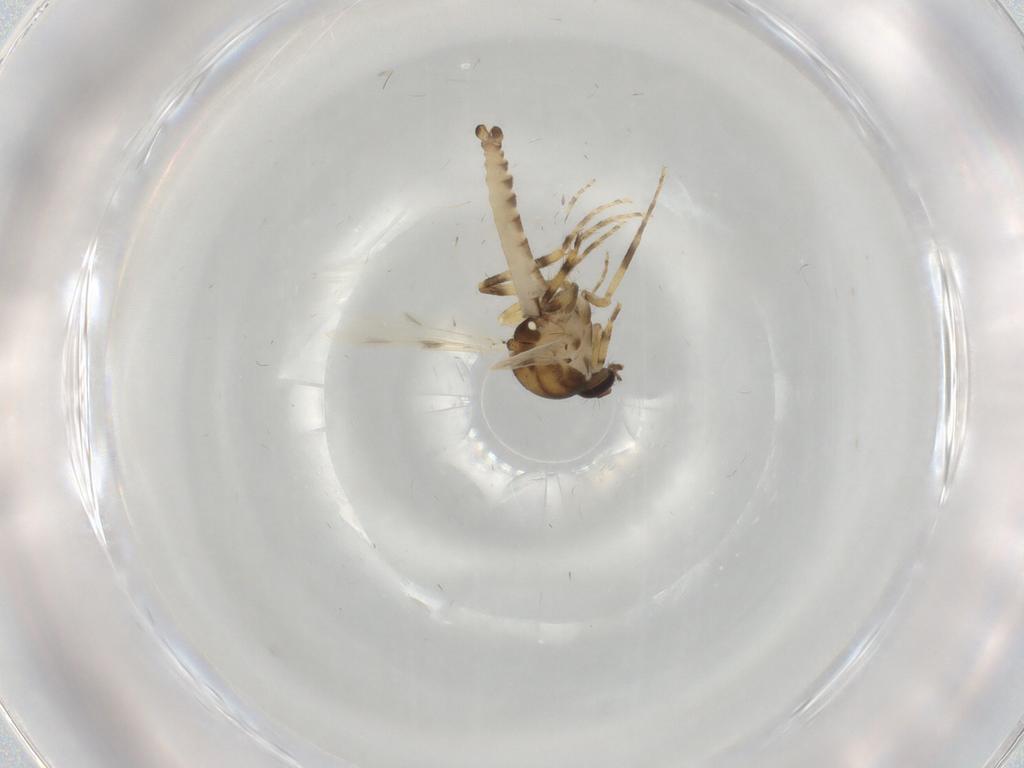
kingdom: Animalia
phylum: Arthropoda
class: Insecta
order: Diptera
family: Ceratopogonidae
